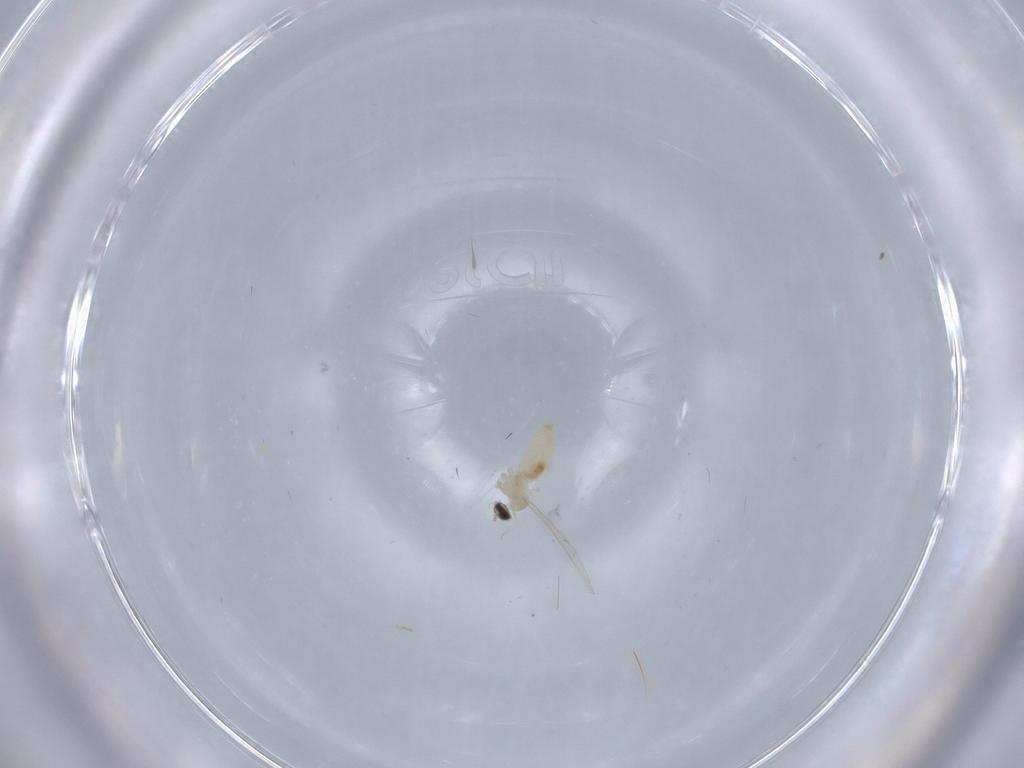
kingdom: Animalia
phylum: Arthropoda
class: Insecta
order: Diptera
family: Cecidomyiidae
